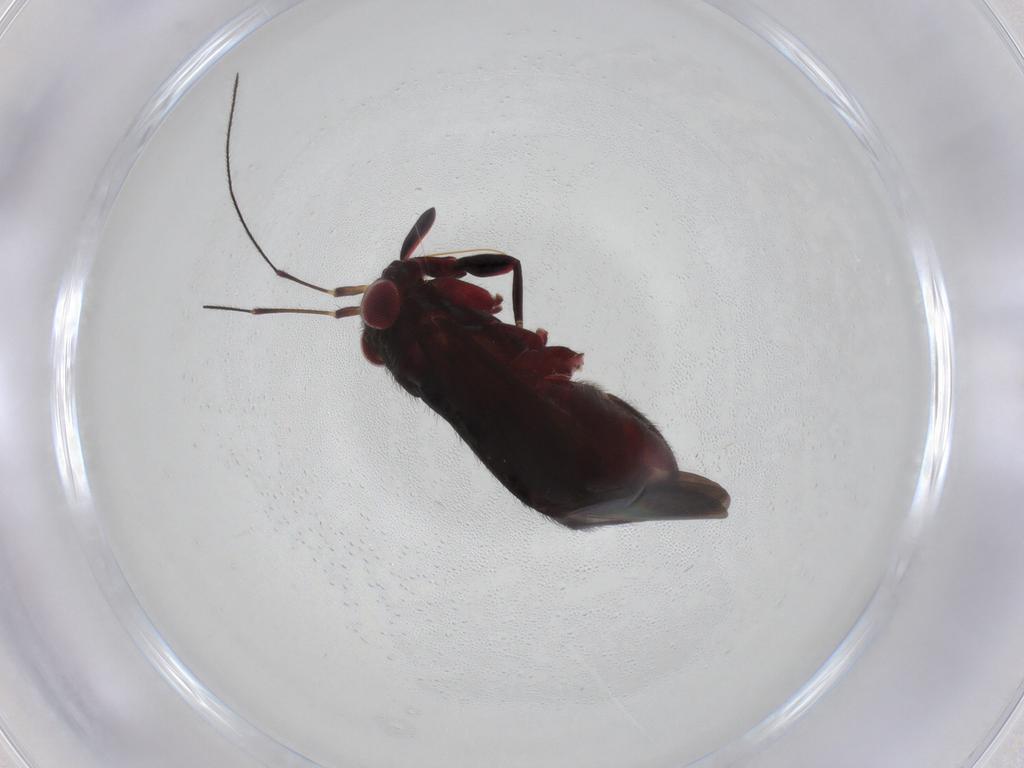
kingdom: Animalia
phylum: Arthropoda
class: Insecta
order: Hemiptera
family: Miridae
